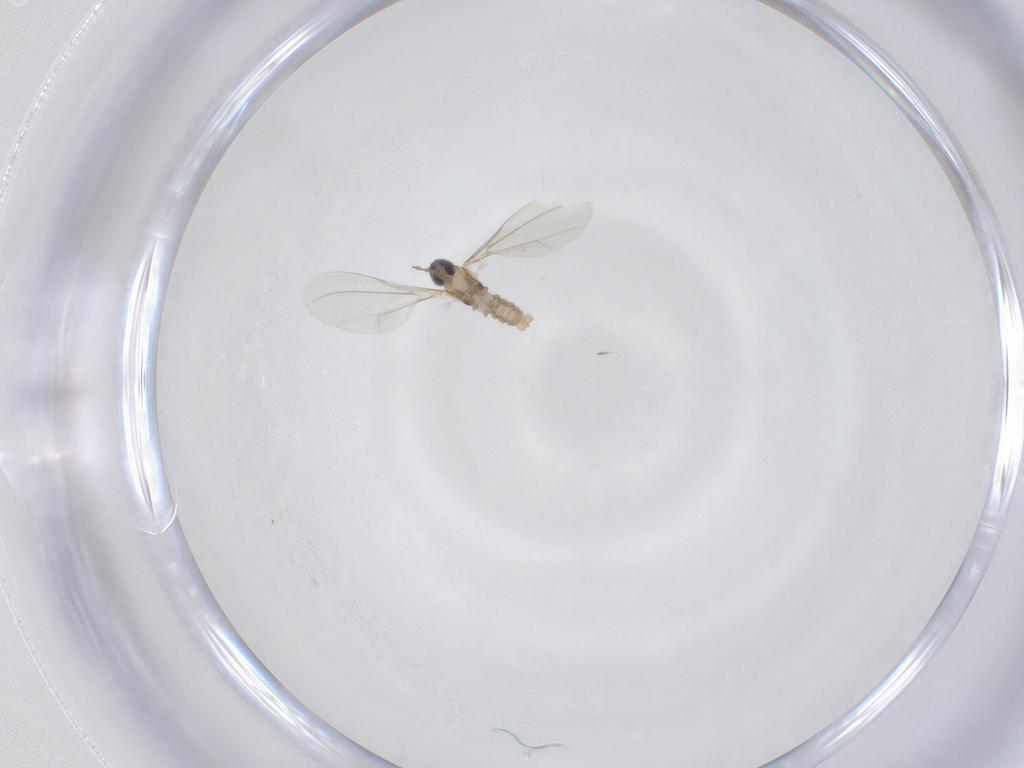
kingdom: Animalia
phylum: Arthropoda
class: Insecta
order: Diptera
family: Cecidomyiidae
